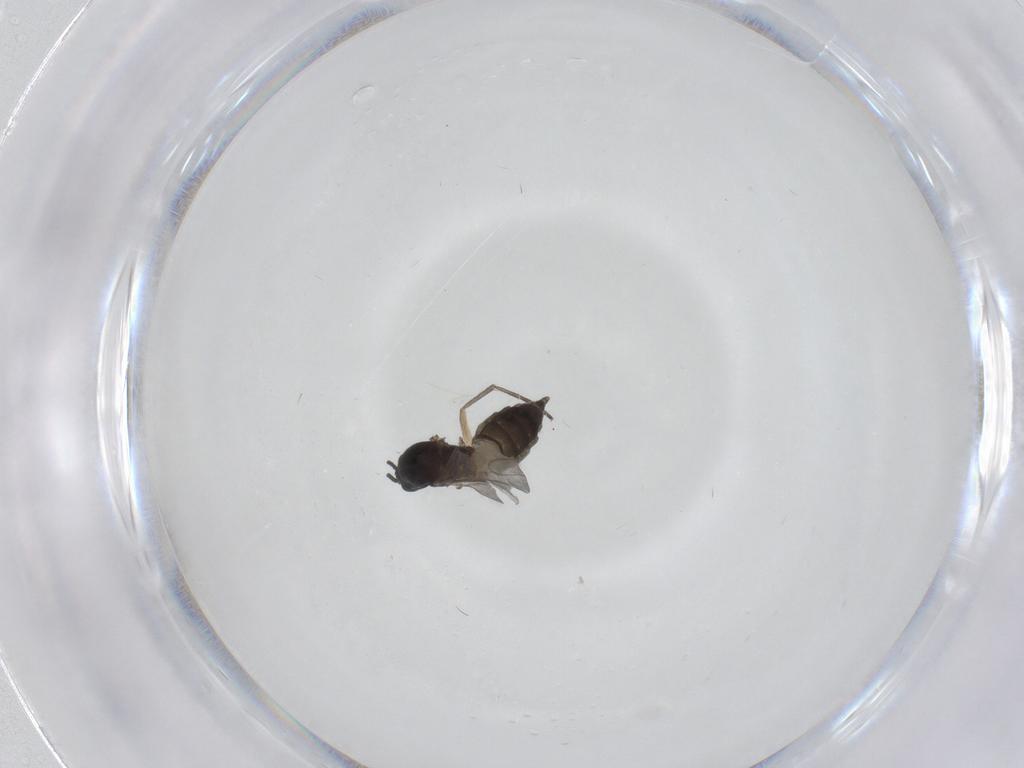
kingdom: Animalia
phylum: Arthropoda
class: Insecta
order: Diptera
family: Sciaridae
